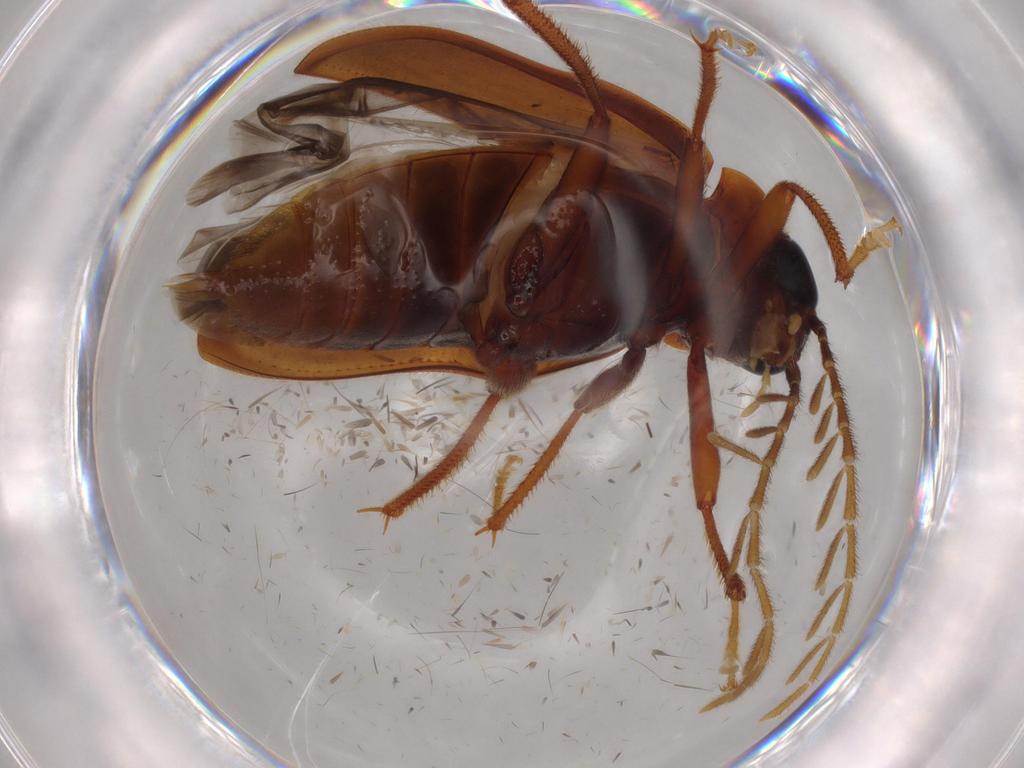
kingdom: Animalia
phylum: Arthropoda
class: Insecta
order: Coleoptera
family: Ptilodactylidae
